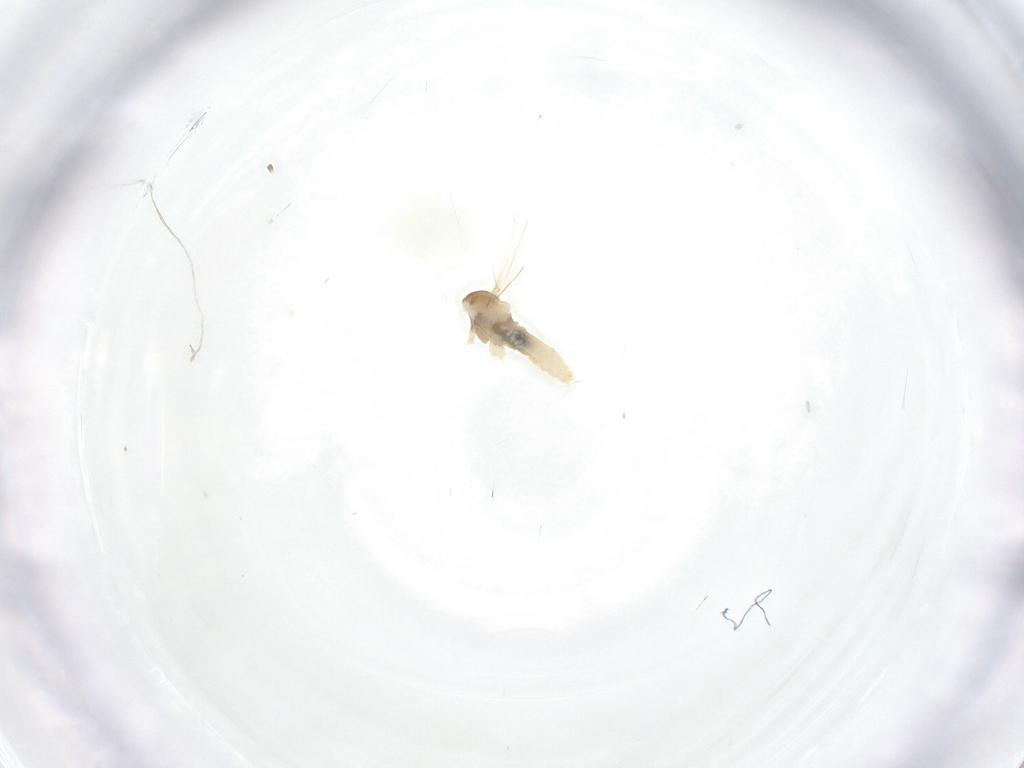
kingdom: Animalia
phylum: Arthropoda
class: Insecta
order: Diptera
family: Cecidomyiidae
